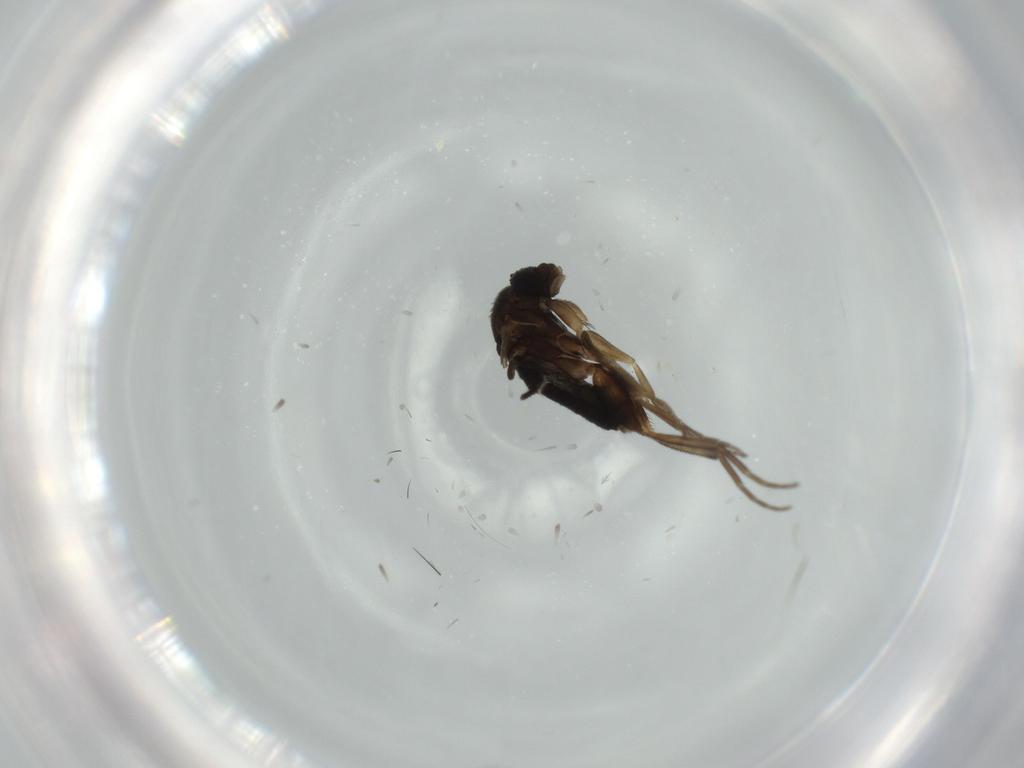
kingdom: Animalia
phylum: Arthropoda
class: Insecta
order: Diptera
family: Phoridae
